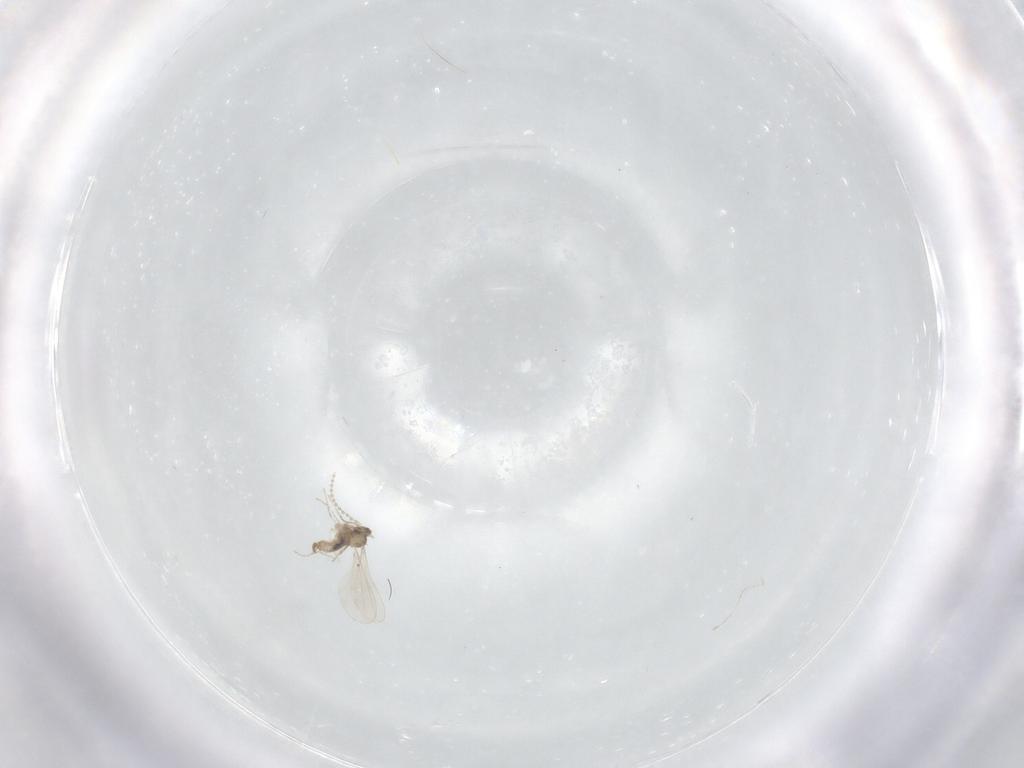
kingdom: Animalia
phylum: Arthropoda
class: Insecta
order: Diptera
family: Cecidomyiidae
